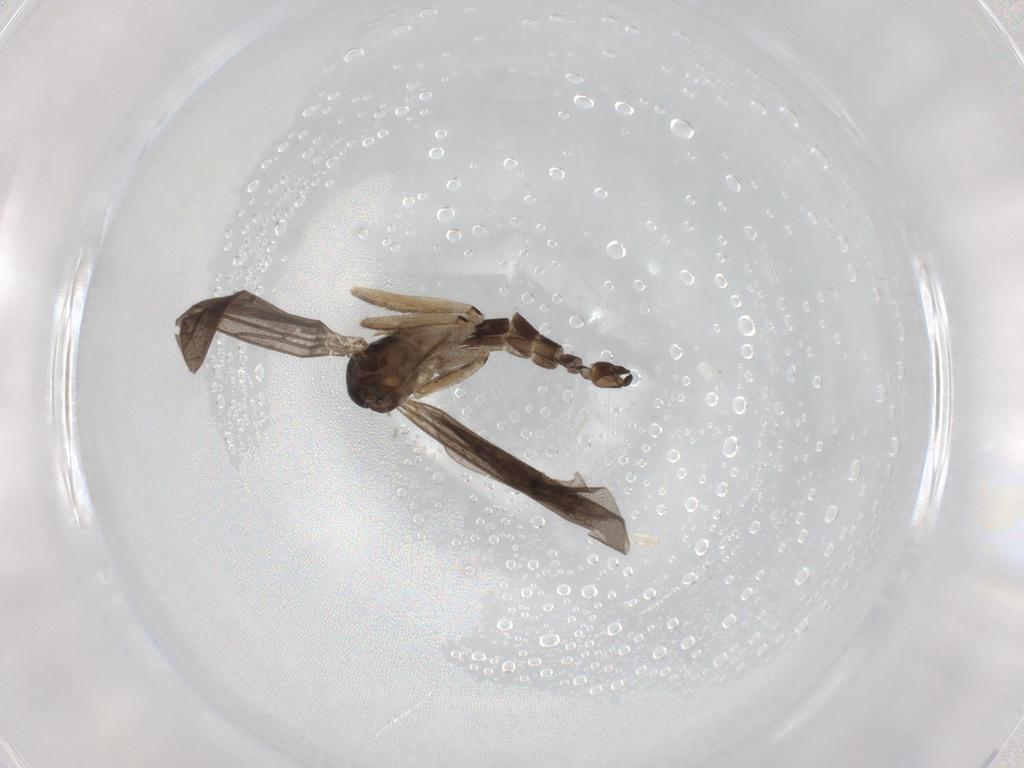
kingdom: Animalia
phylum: Arthropoda
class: Insecta
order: Diptera
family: Sciaridae
